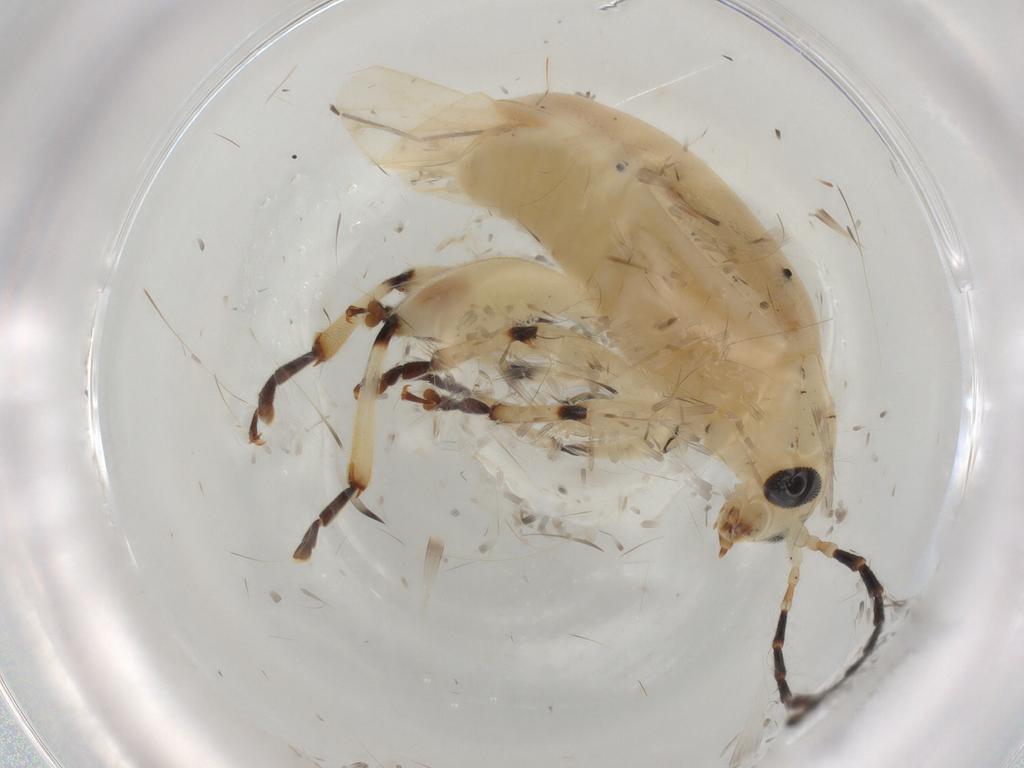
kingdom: Animalia
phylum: Arthropoda
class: Insecta
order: Coleoptera
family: Chrysomelidae
